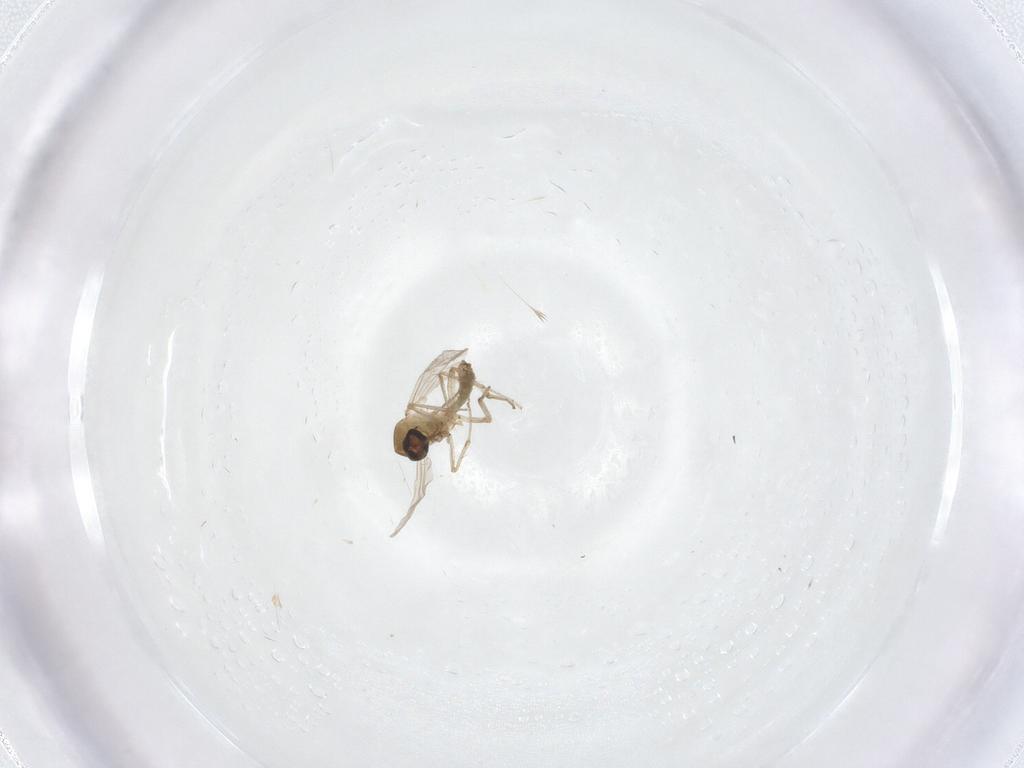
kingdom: Animalia
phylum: Arthropoda
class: Insecta
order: Diptera
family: Ceratopogonidae
